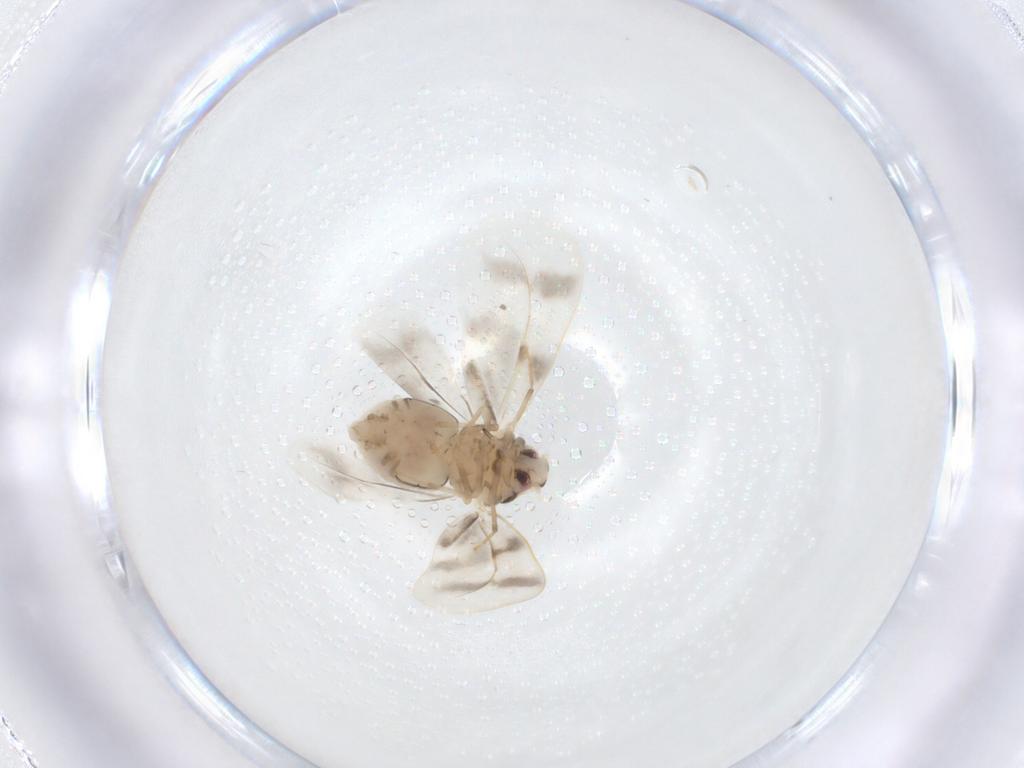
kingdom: Animalia
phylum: Arthropoda
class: Insecta
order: Hemiptera
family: Aleyrodidae
